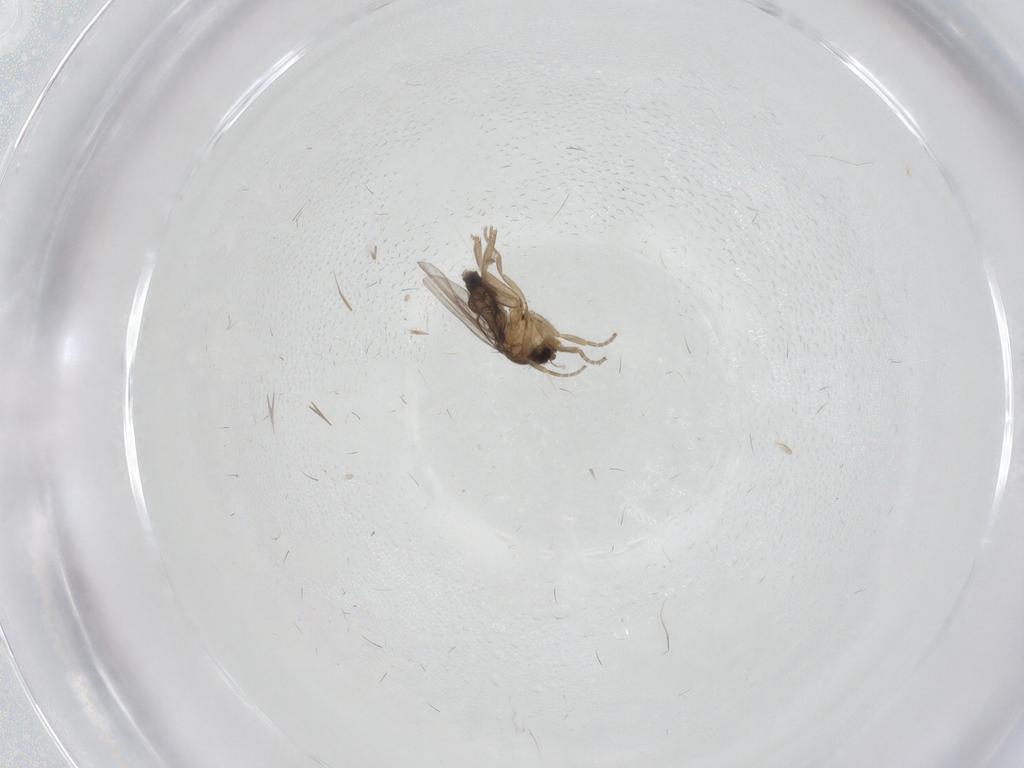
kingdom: Animalia
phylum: Arthropoda
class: Insecta
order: Diptera
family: Phoridae
